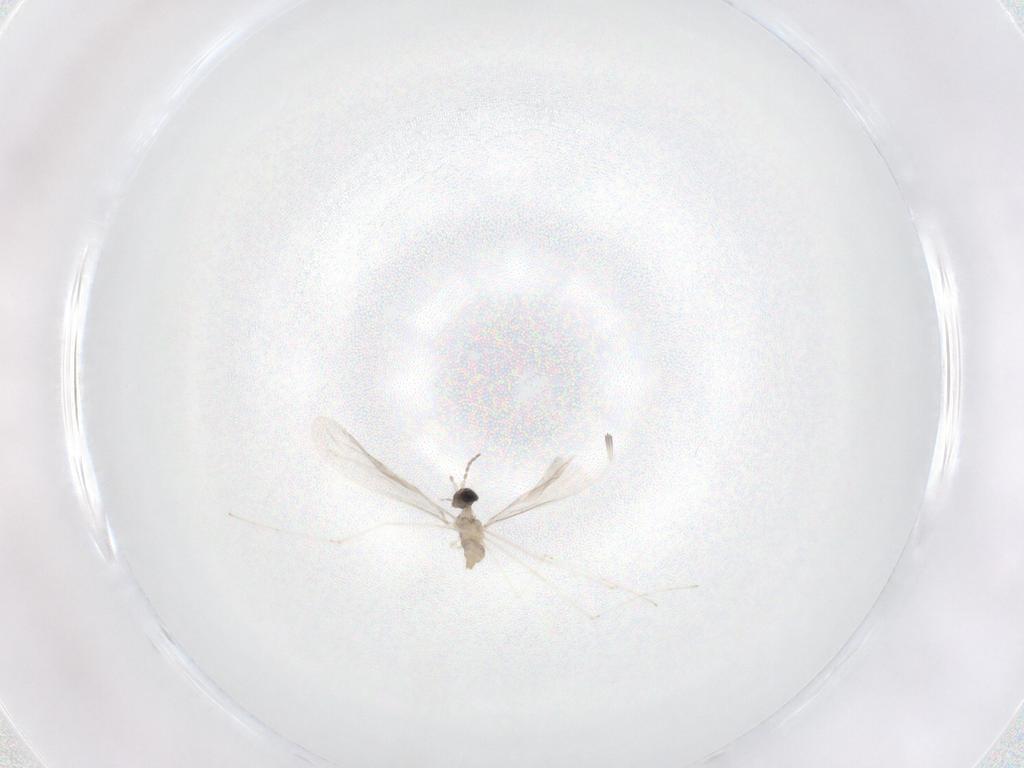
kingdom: Animalia
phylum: Arthropoda
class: Insecta
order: Diptera
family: Cecidomyiidae
